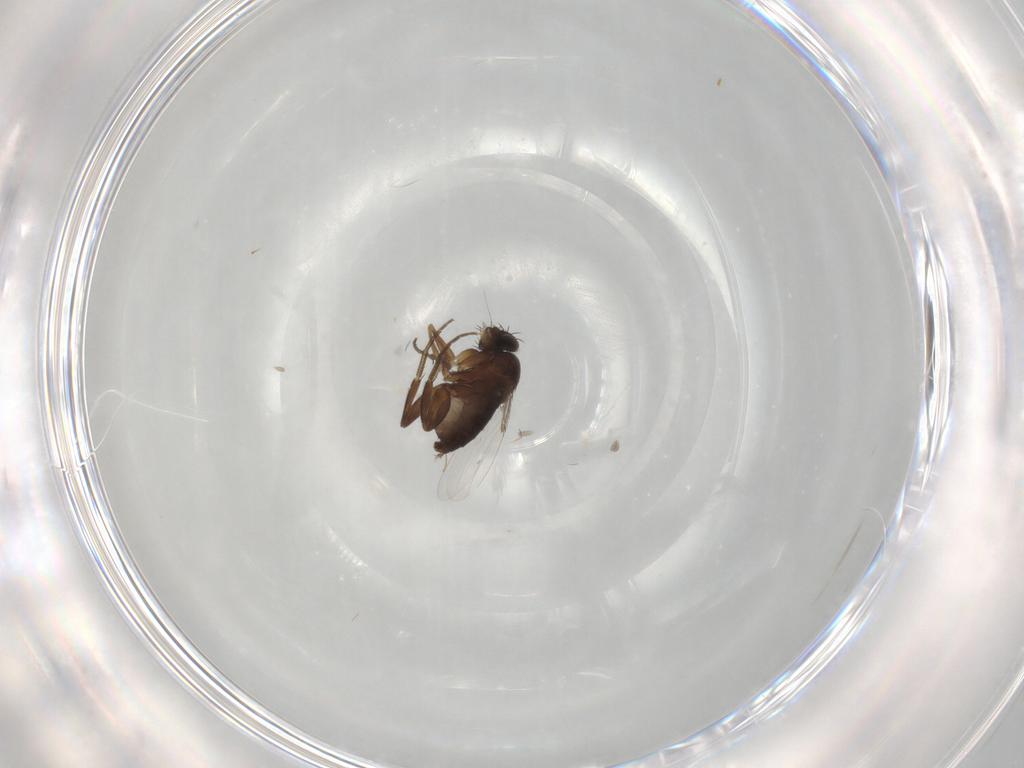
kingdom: Animalia
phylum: Arthropoda
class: Insecta
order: Diptera
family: Phoridae
